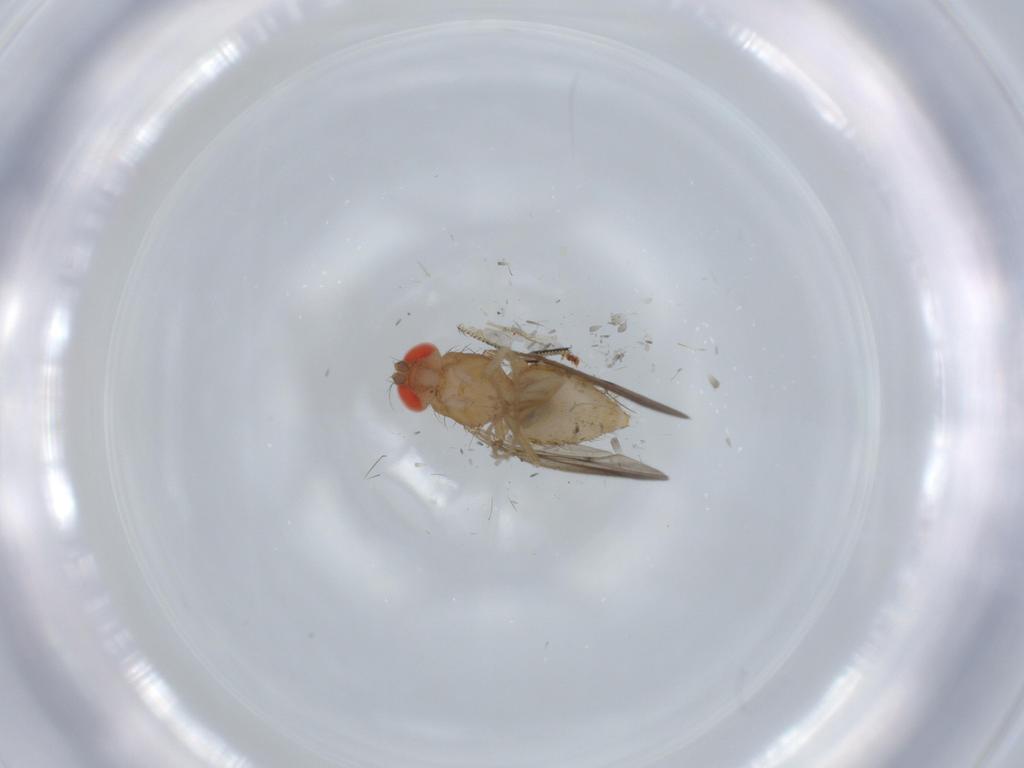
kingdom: Animalia
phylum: Arthropoda
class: Insecta
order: Diptera
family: Drosophilidae
